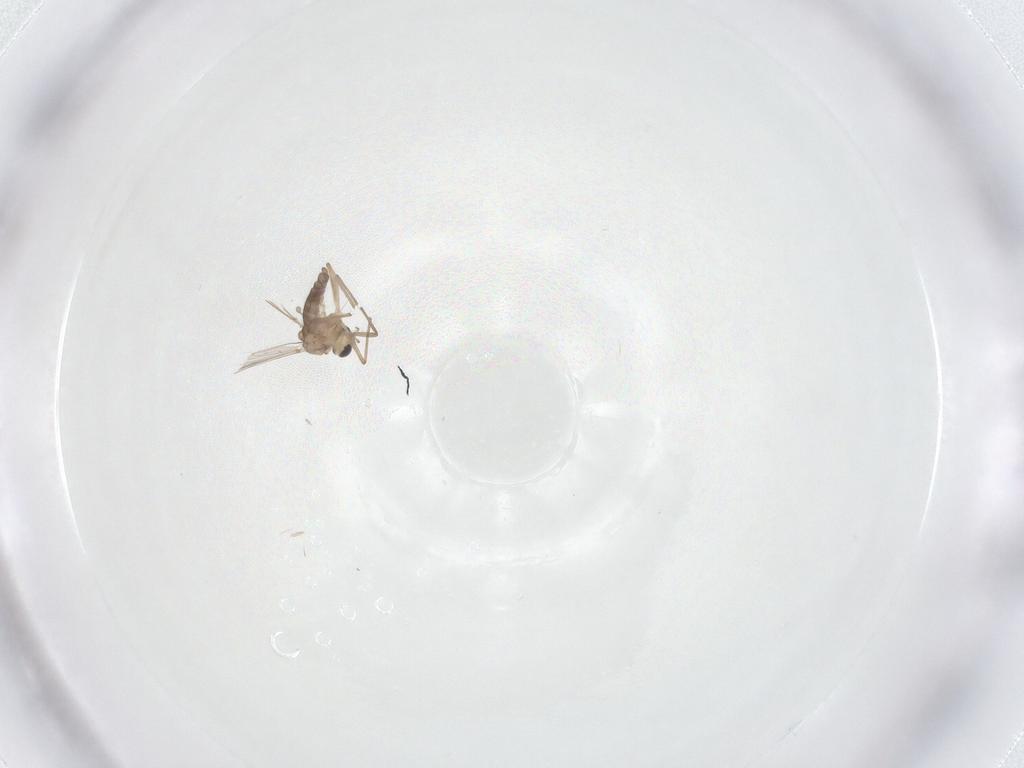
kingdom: Animalia
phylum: Arthropoda
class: Insecta
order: Diptera
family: Chironomidae
